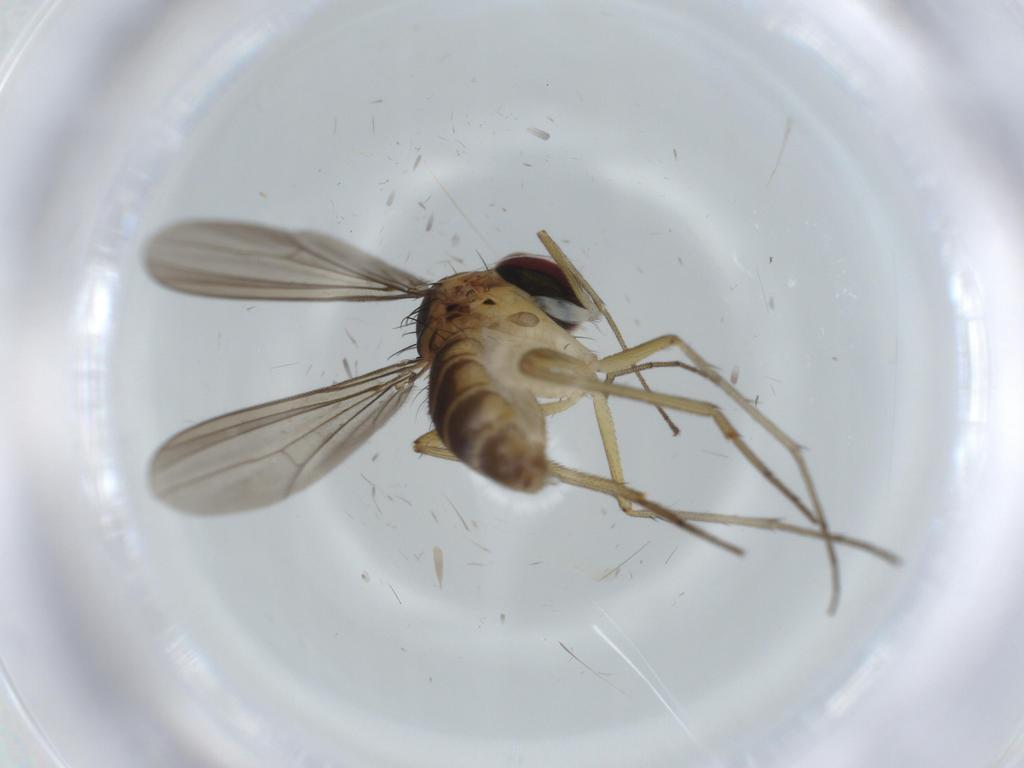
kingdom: Animalia
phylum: Arthropoda
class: Insecta
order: Diptera
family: Dolichopodidae
